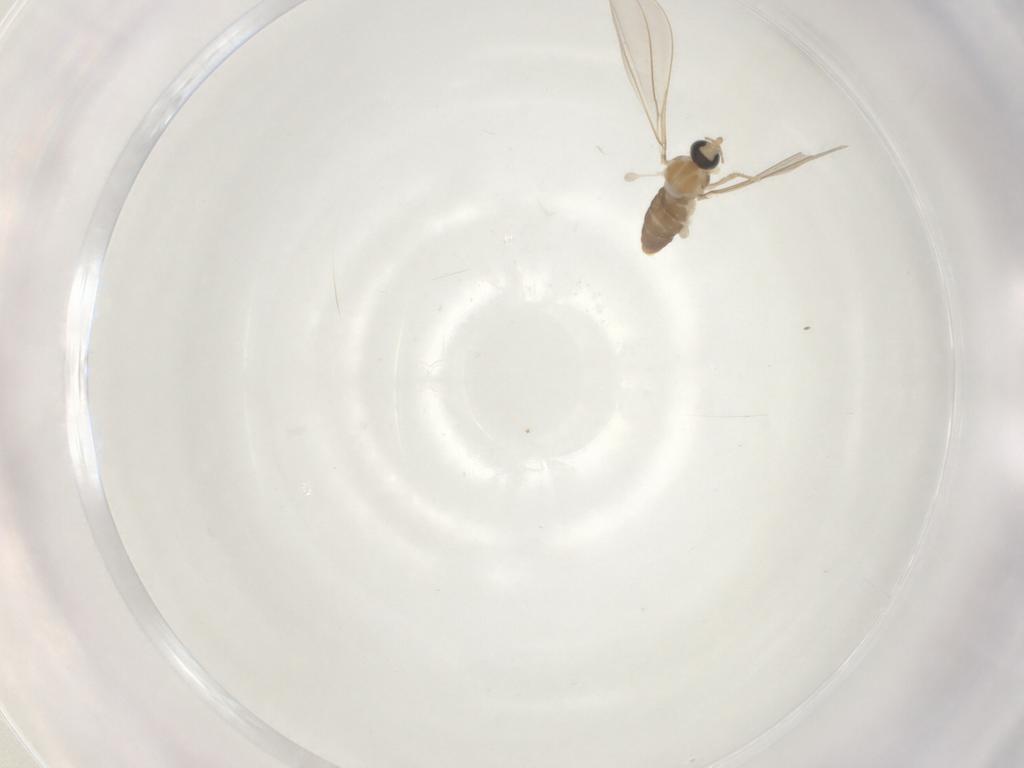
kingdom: Animalia
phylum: Arthropoda
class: Insecta
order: Diptera
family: Cecidomyiidae
